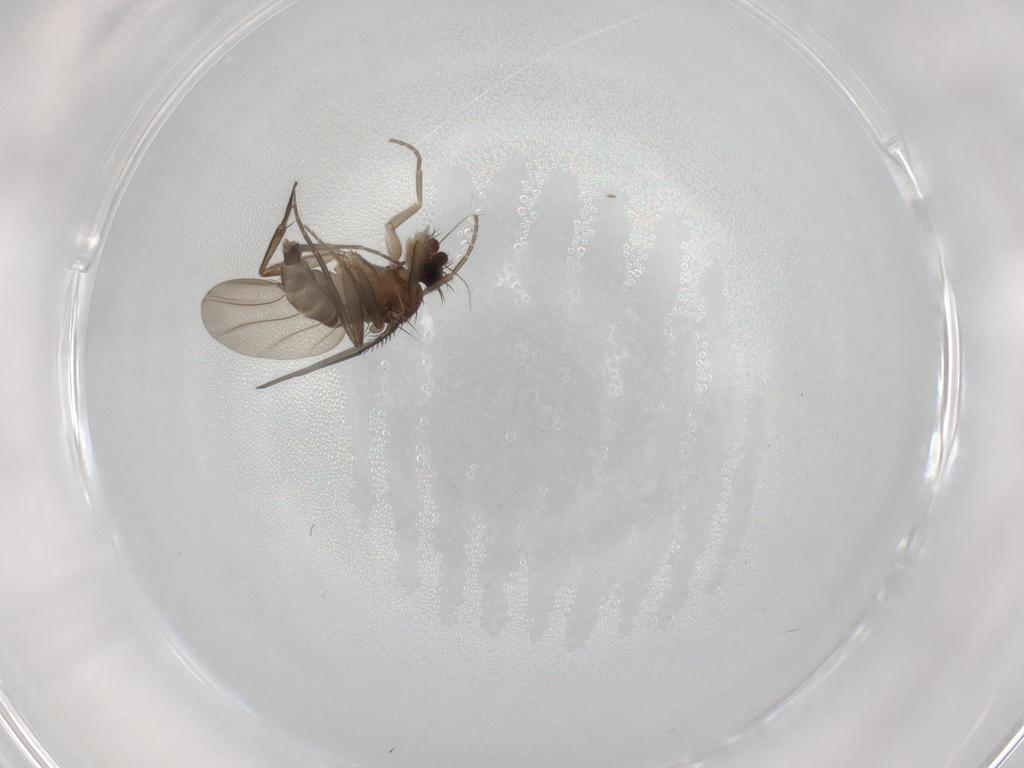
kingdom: Animalia
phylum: Arthropoda
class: Insecta
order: Diptera
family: Phoridae
